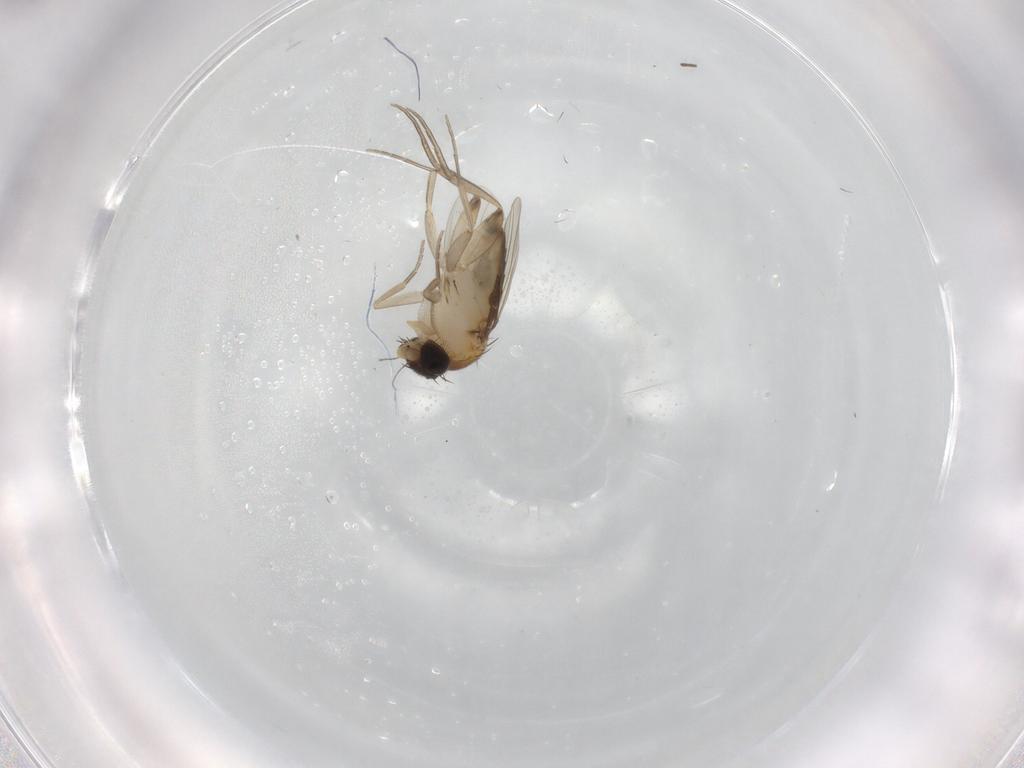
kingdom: Animalia
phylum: Arthropoda
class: Insecta
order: Diptera
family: Phoridae
